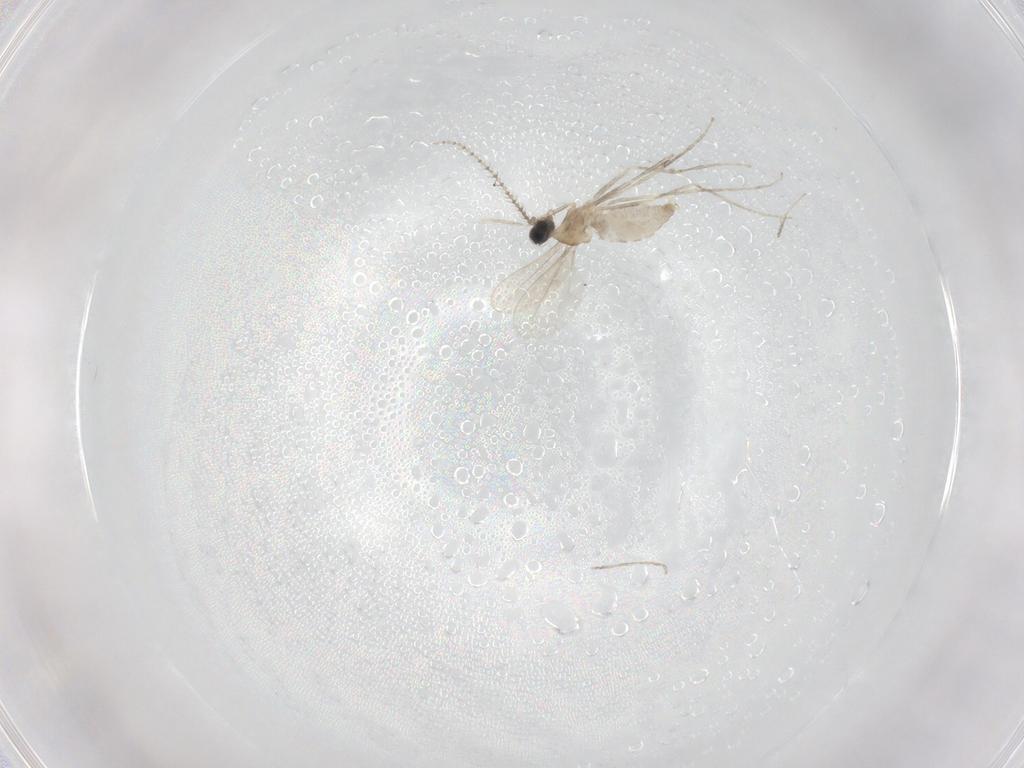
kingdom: Animalia
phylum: Arthropoda
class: Insecta
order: Diptera
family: Cecidomyiidae
